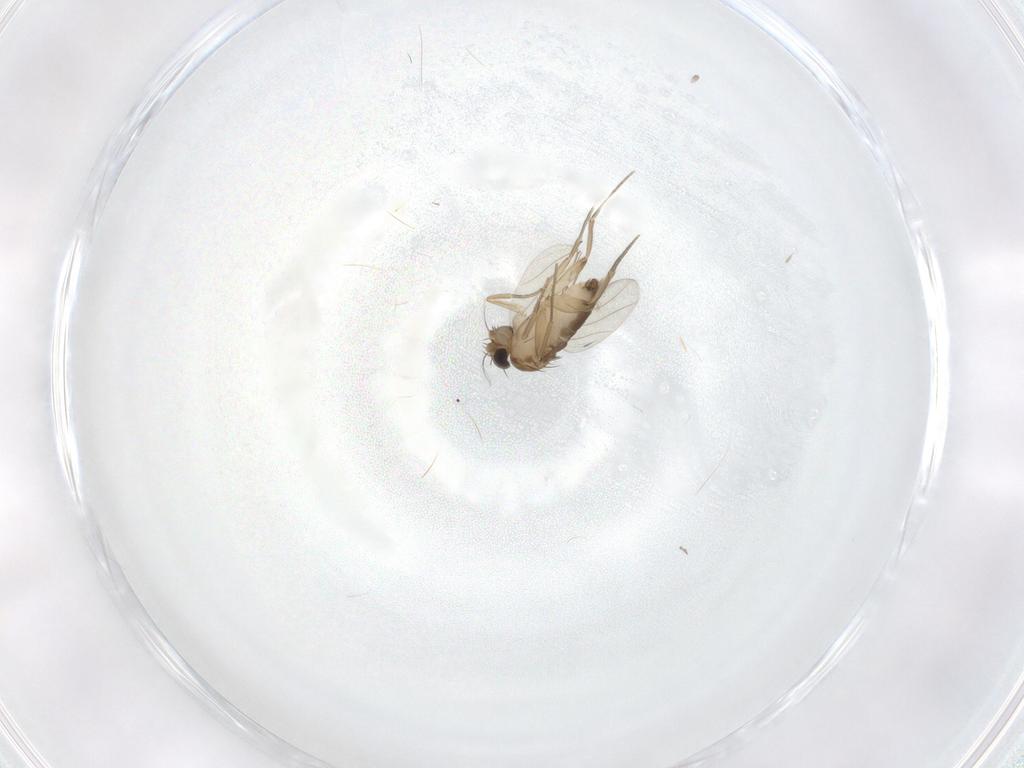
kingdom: Animalia
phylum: Arthropoda
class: Insecta
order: Diptera
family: Phoridae
